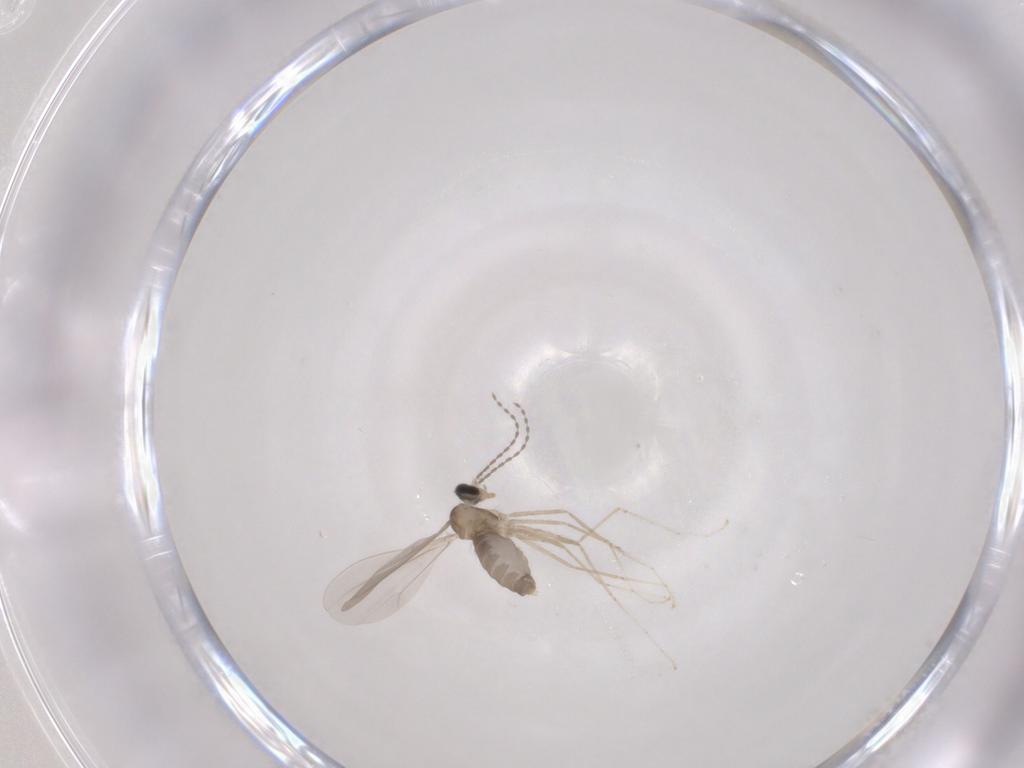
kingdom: Animalia
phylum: Arthropoda
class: Insecta
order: Diptera
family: Cecidomyiidae
